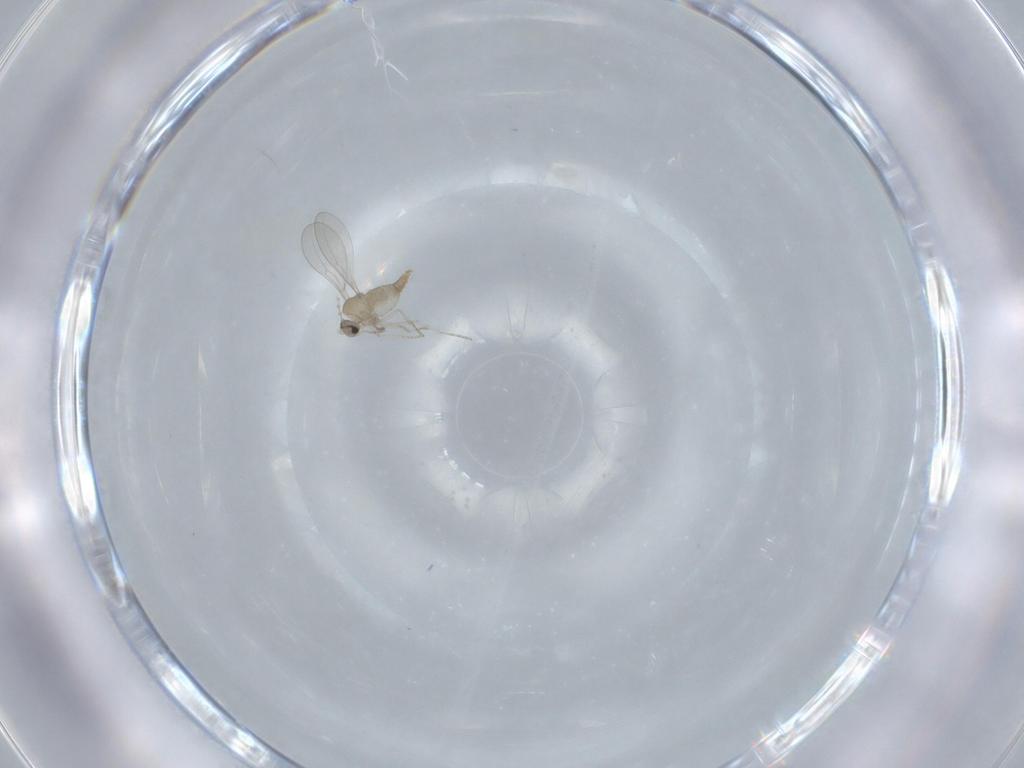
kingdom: Animalia
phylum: Arthropoda
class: Insecta
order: Diptera
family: Cecidomyiidae
